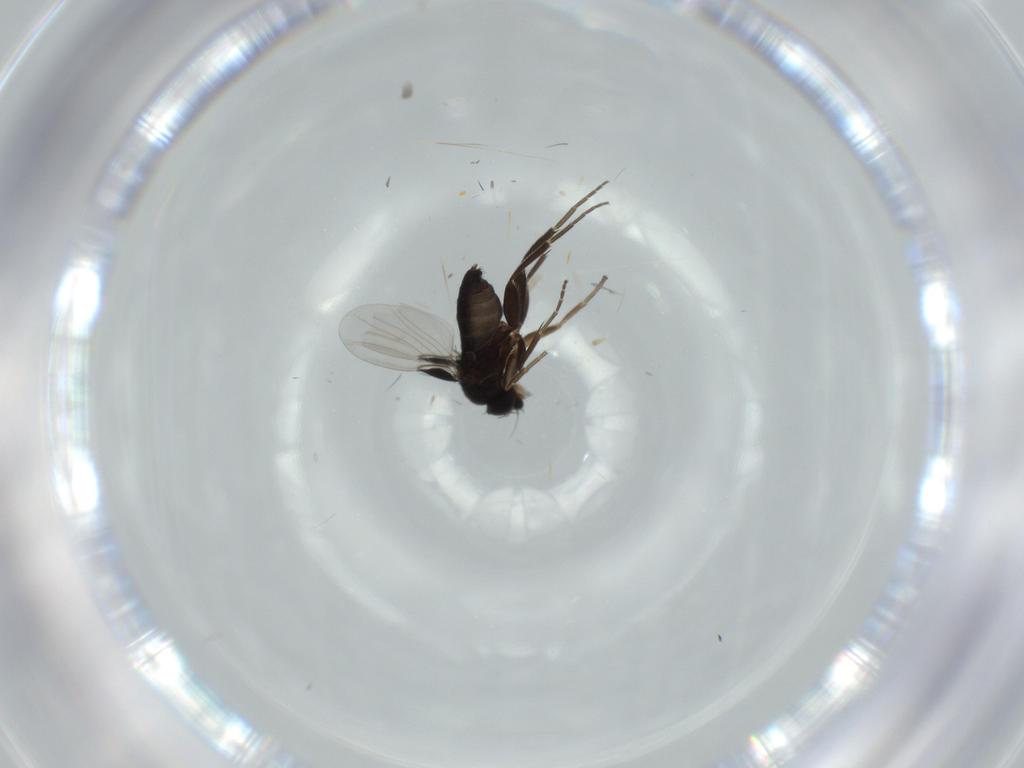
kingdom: Animalia
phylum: Arthropoda
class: Insecta
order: Diptera
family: Phoridae
